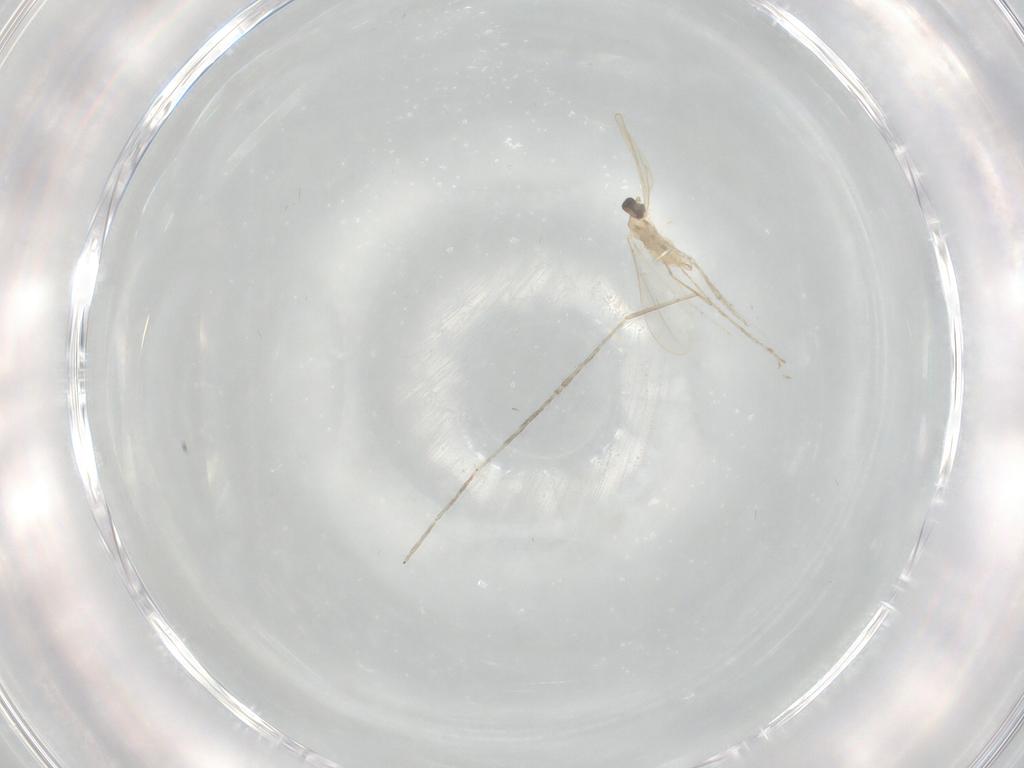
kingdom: Animalia
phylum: Arthropoda
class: Insecta
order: Diptera
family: Cecidomyiidae
